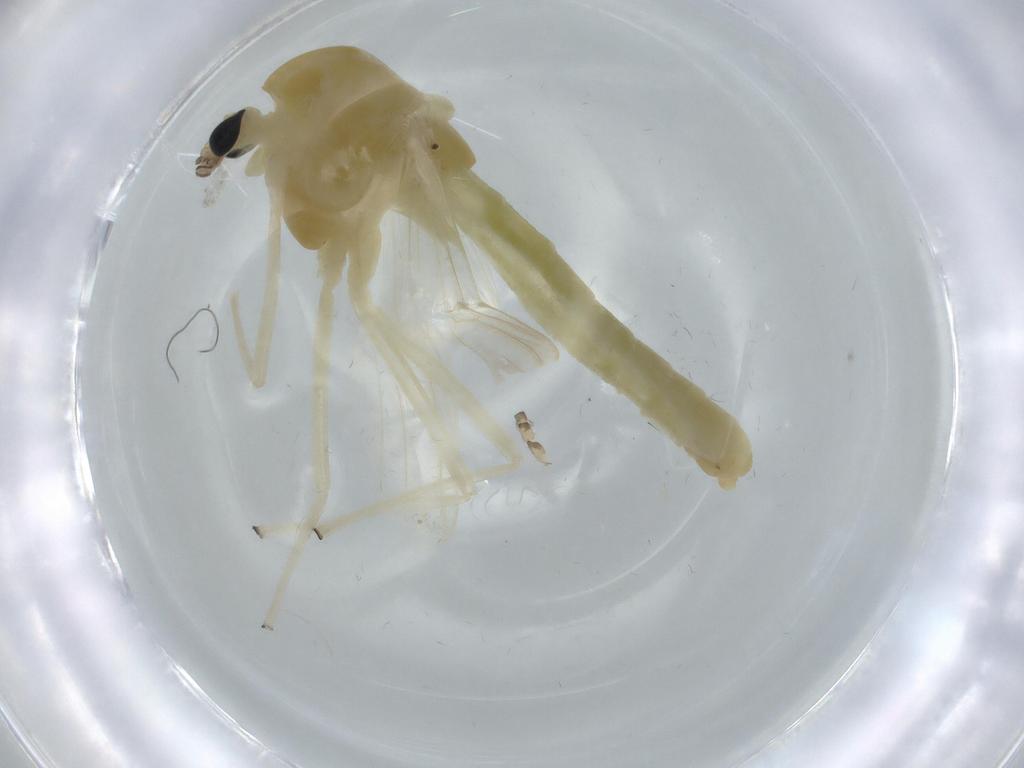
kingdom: Animalia
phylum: Arthropoda
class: Insecta
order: Diptera
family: Chironomidae
